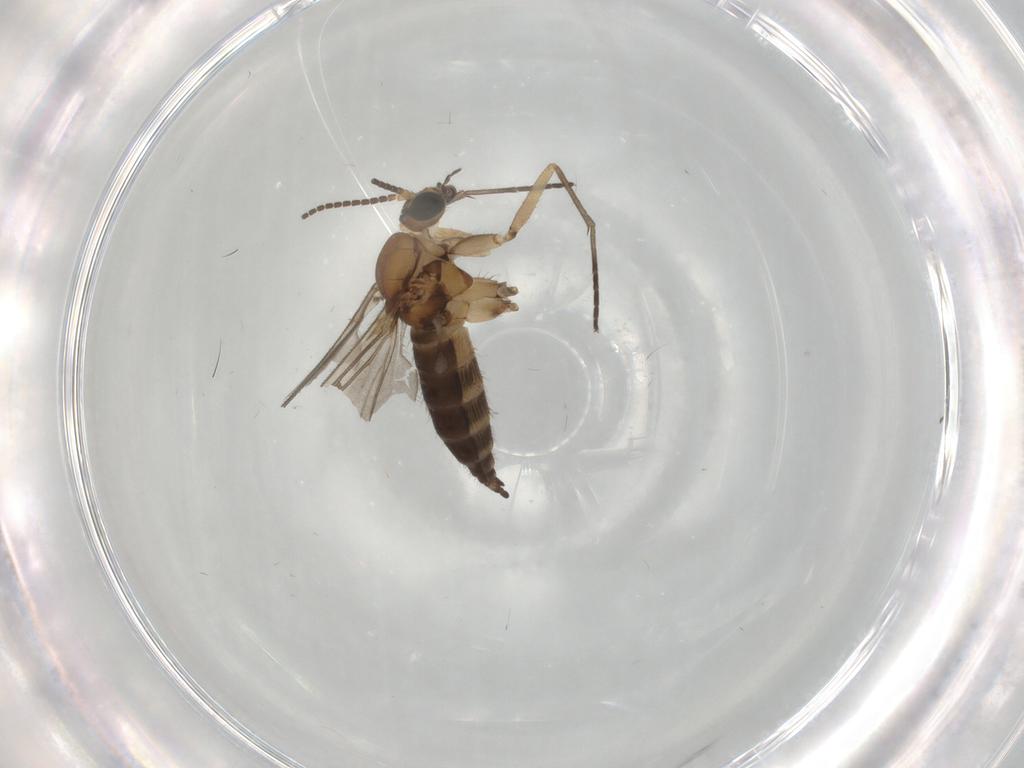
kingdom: Animalia
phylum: Arthropoda
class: Insecta
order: Diptera
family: Sciaridae
